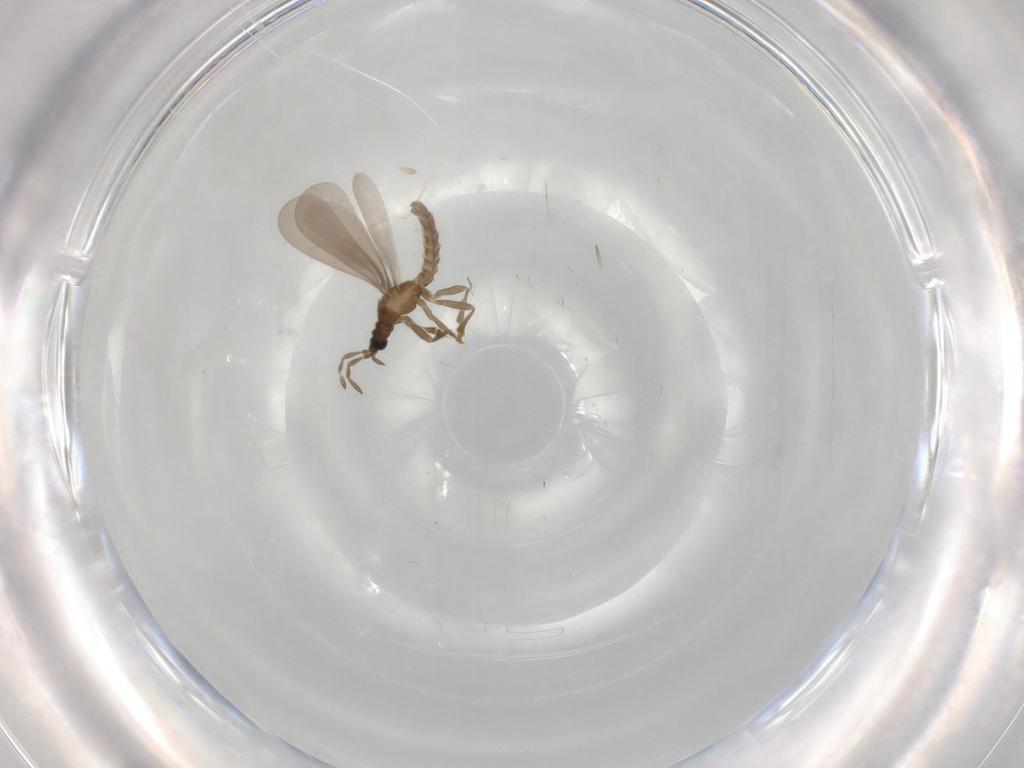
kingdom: Animalia
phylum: Arthropoda
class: Insecta
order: Hemiptera
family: Enicocephalidae
